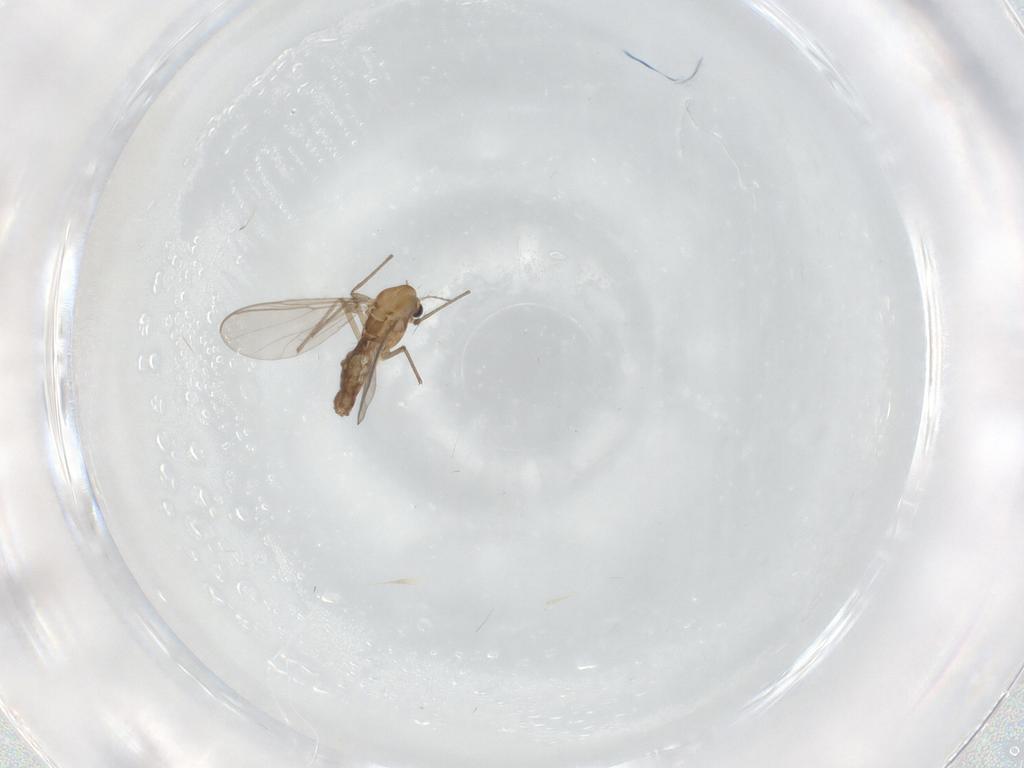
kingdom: Animalia
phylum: Arthropoda
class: Insecta
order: Diptera
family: Chironomidae
